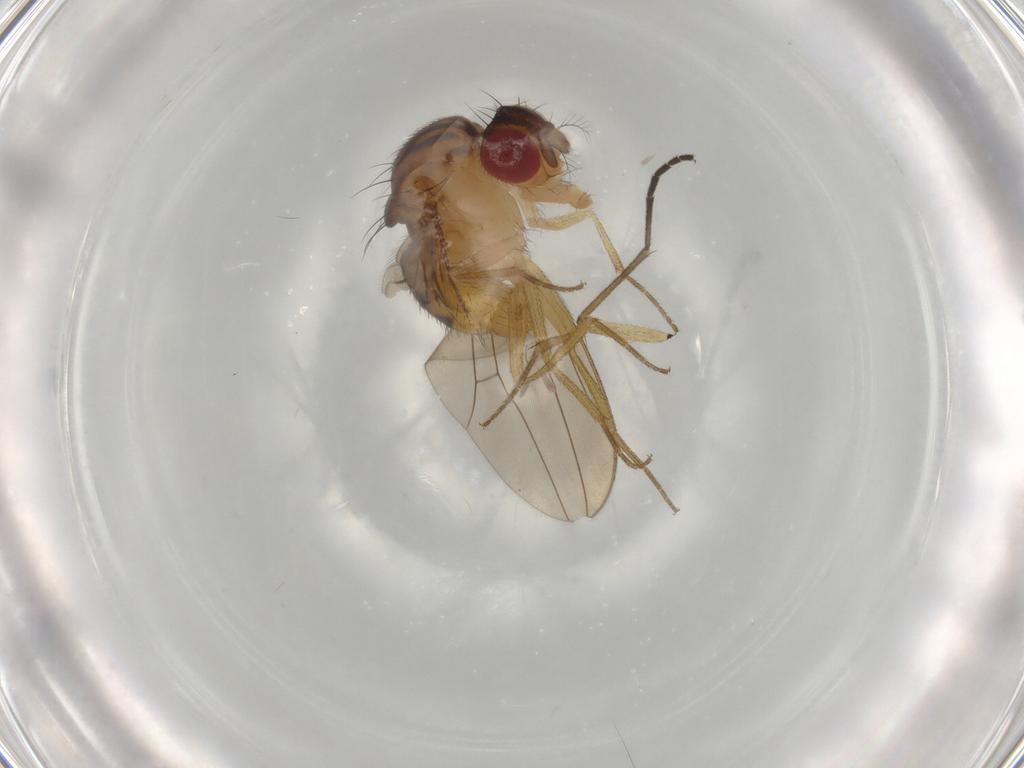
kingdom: Animalia
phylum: Arthropoda
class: Insecta
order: Diptera
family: Drosophilidae
